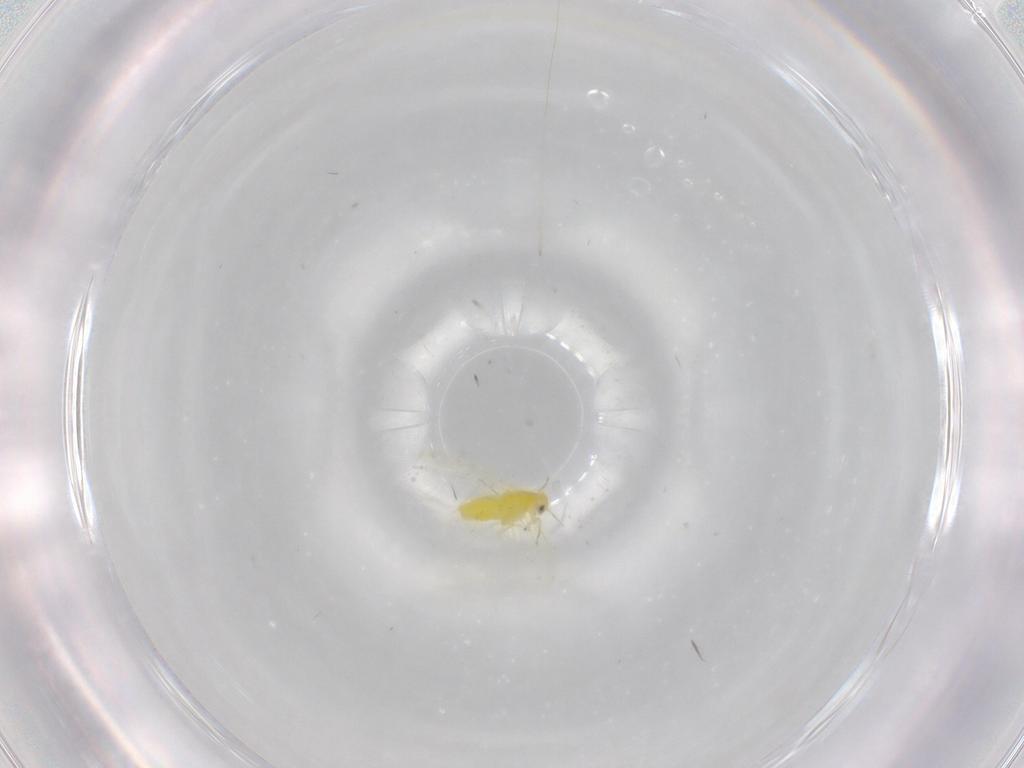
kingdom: Animalia
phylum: Arthropoda
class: Insecta
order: Hemiptera
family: Aleyrodidae
